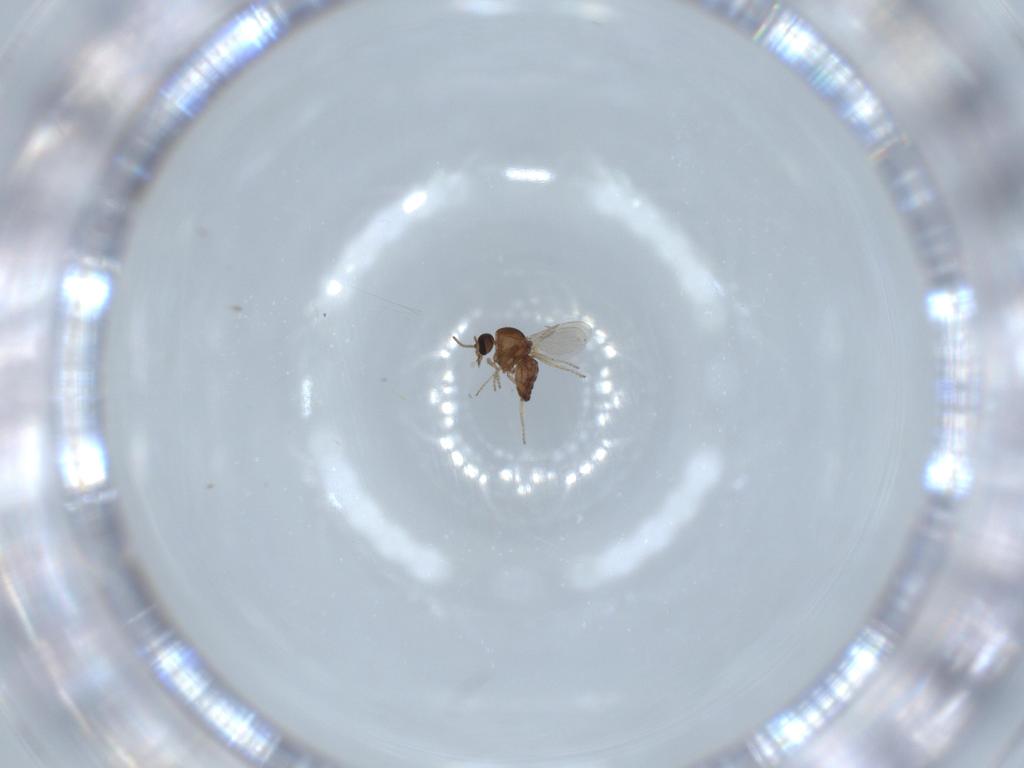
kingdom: Animalia
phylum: Arthropoda
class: Insecta
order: Diptera
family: Ceratopogonidae
